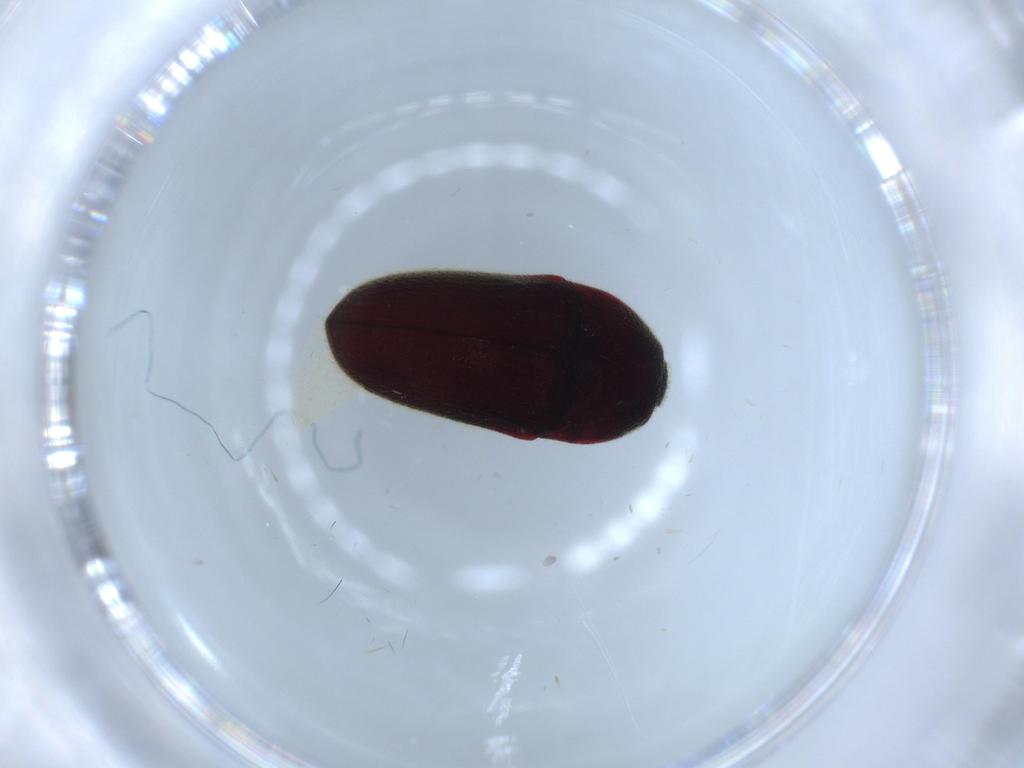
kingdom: Animalia
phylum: Arthropoda
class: Insecta
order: Coleoptera
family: Throscidae
